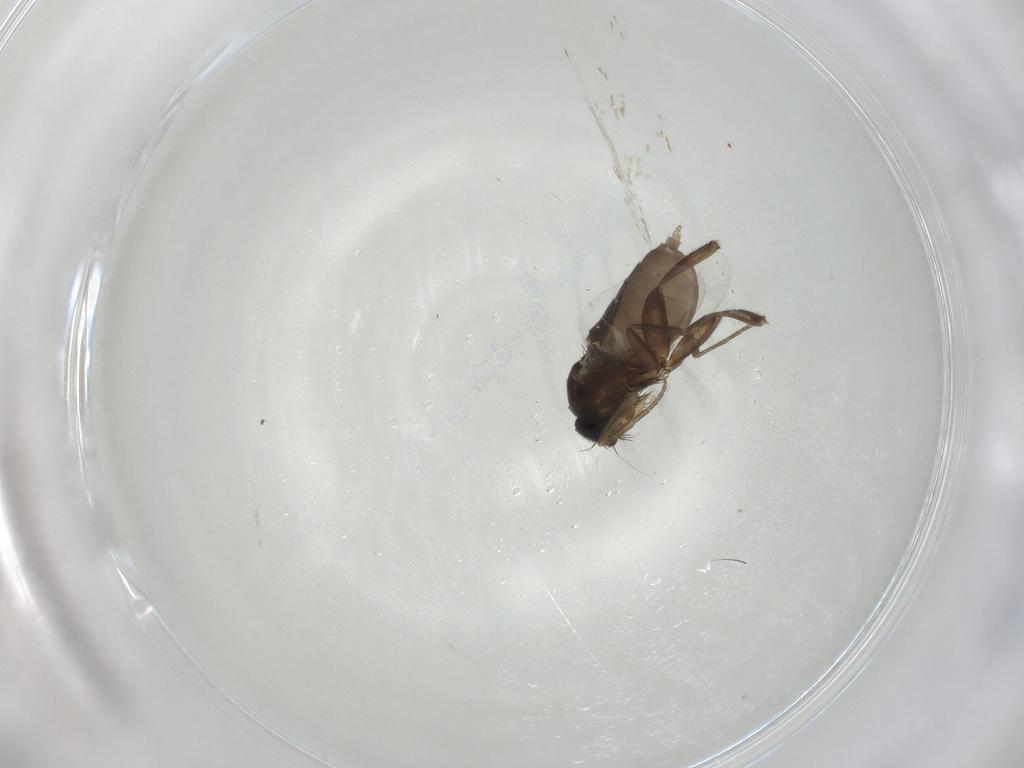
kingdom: Animalia
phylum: Arthropoda
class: Insecta
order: Diptera
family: Phoridae
